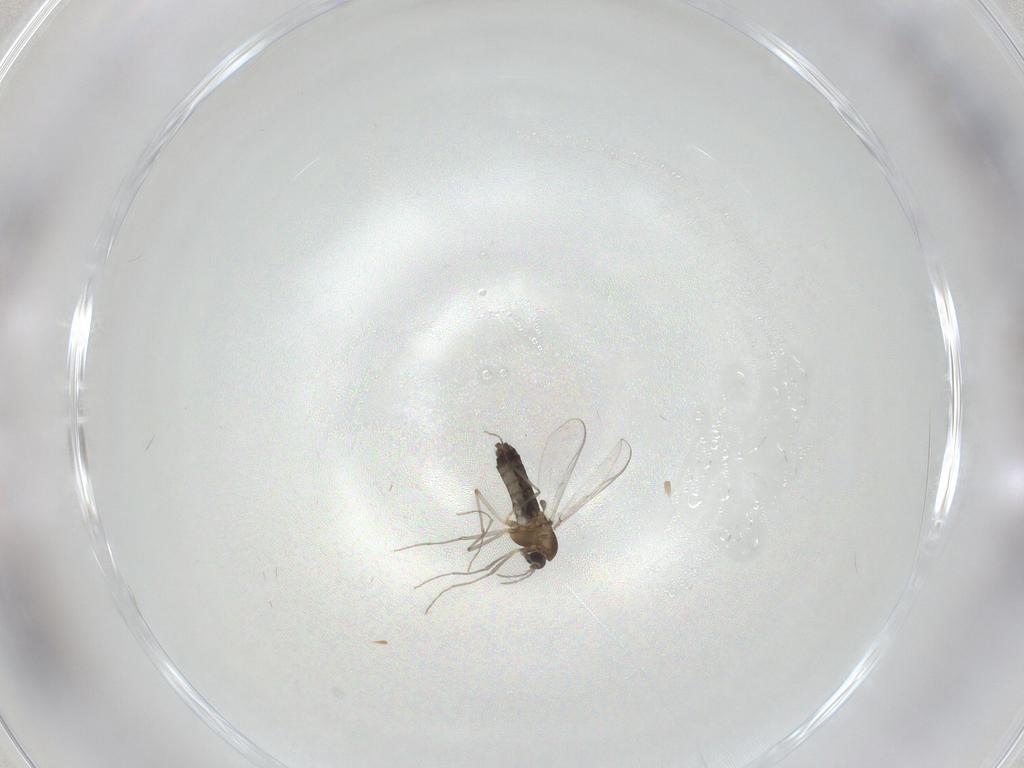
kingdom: Animalia
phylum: Arthropoda
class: Insecta
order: Diptera
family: Chironomidae
